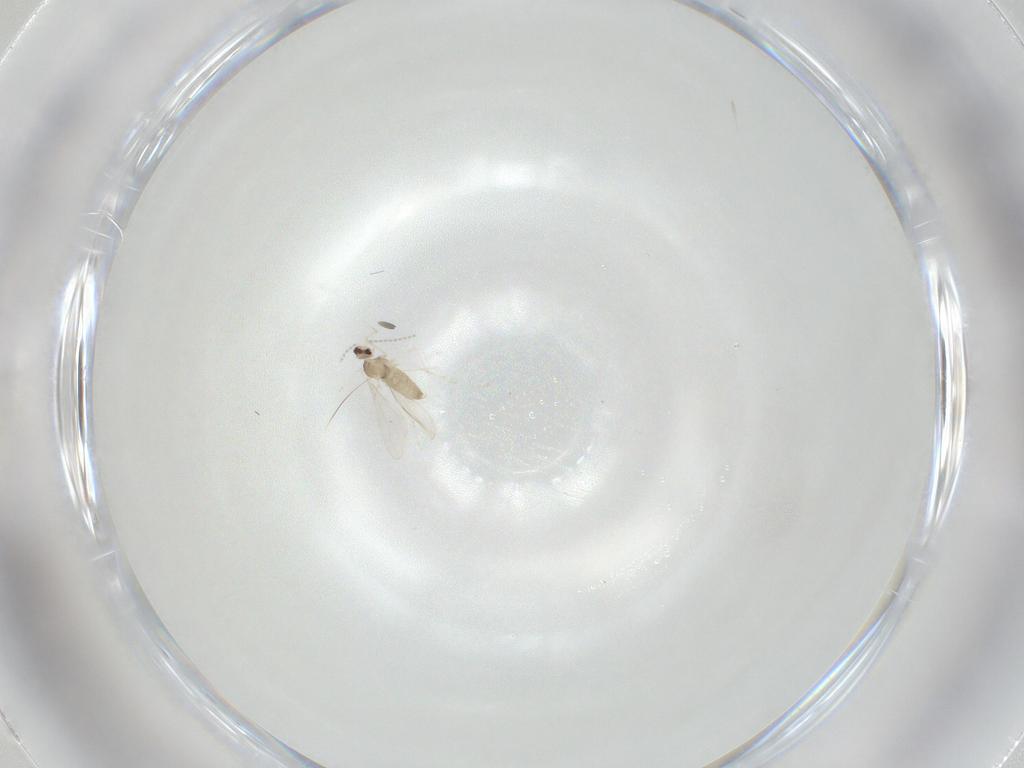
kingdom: Animalia
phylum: Arthropoda
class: Insecta
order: Diptera
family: Cecidomyiidae
